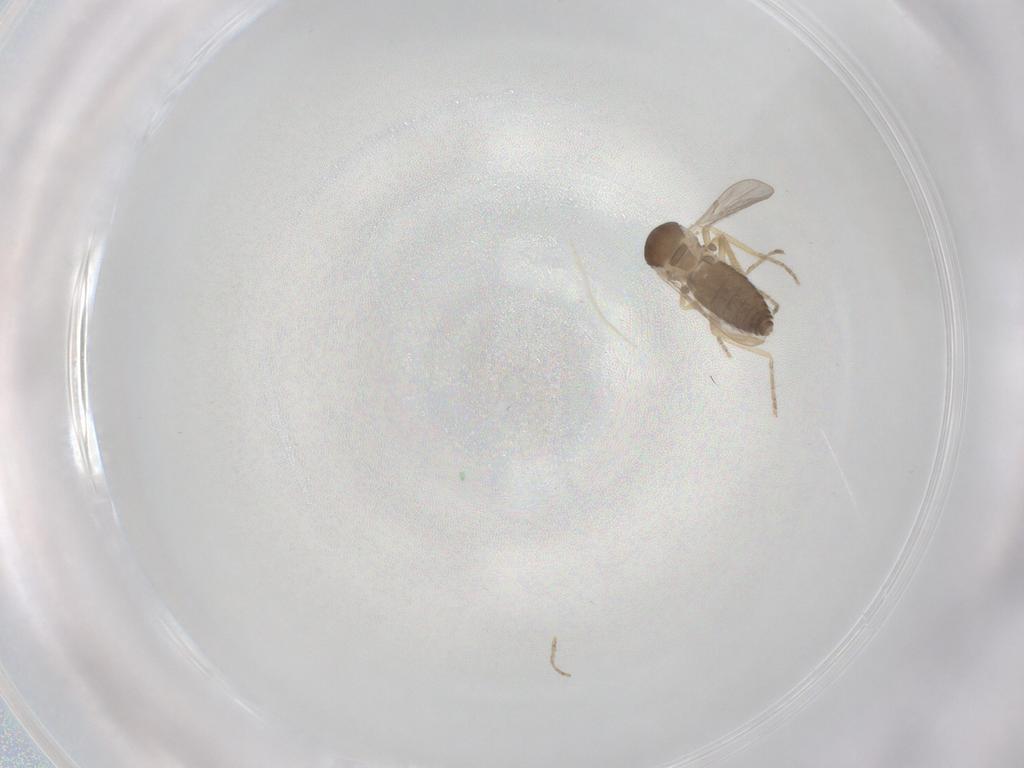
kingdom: Animalia
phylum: Arthropoda
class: Insecta
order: Diptera
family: Ceratopogonidae
